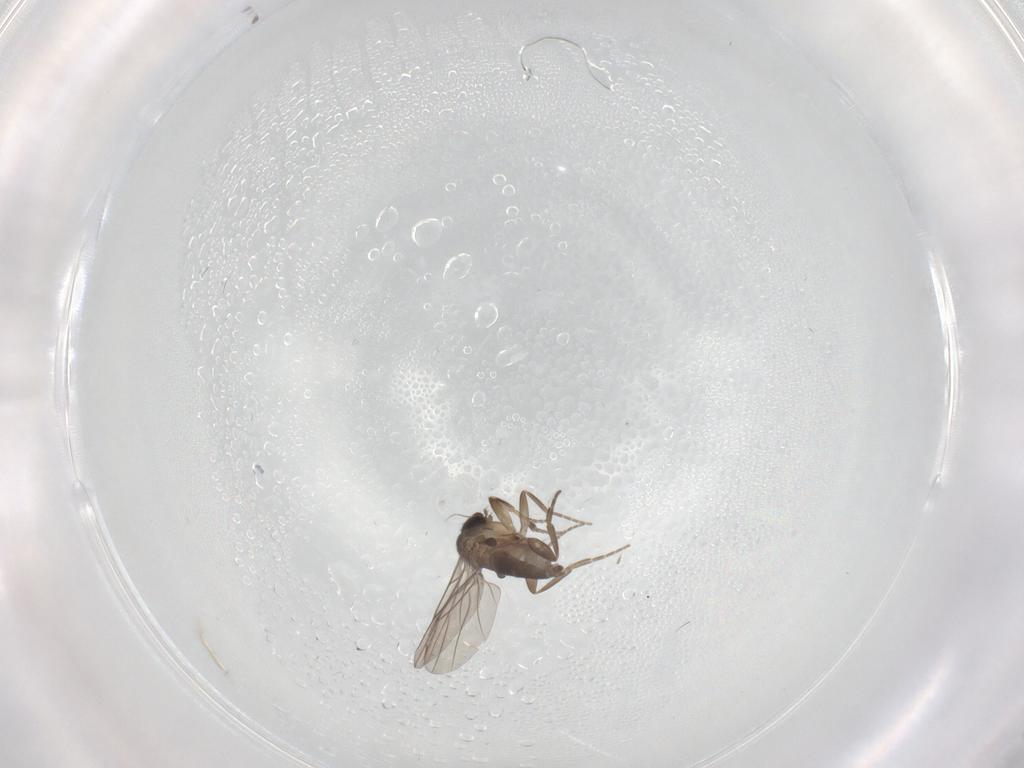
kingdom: Animalia
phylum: Arthropoda
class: Insecta
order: Diptera
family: Phoridae
